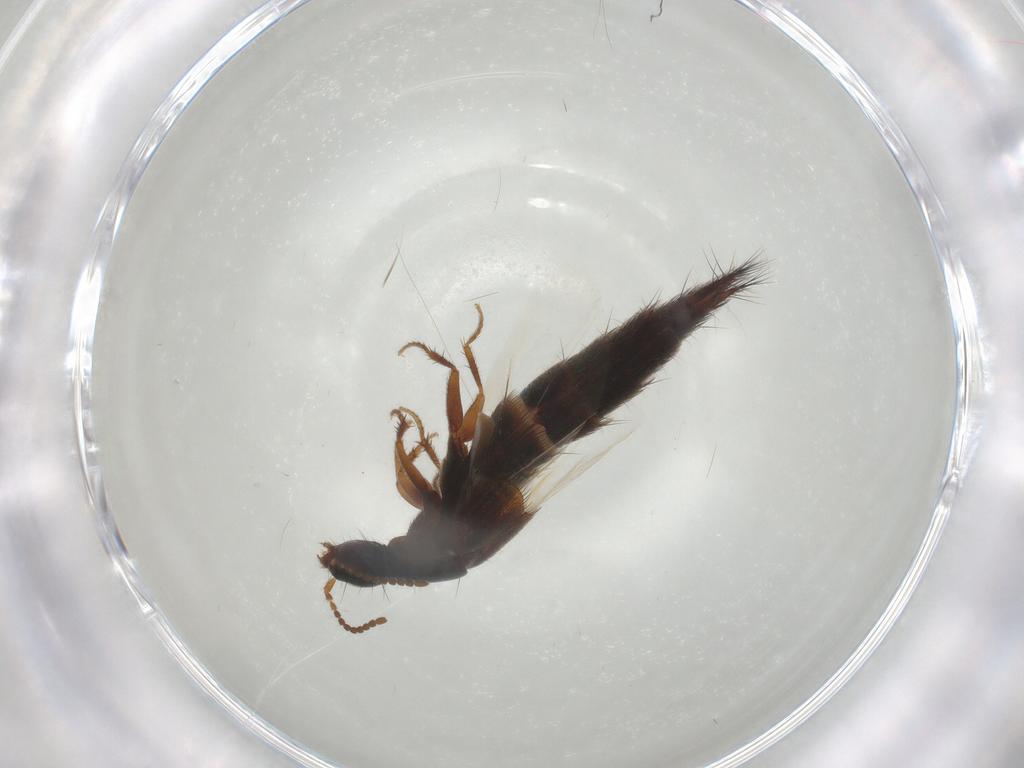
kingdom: Animalia
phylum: Arthropoda
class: Insecta
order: Coleoptera
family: Staphylinidae
